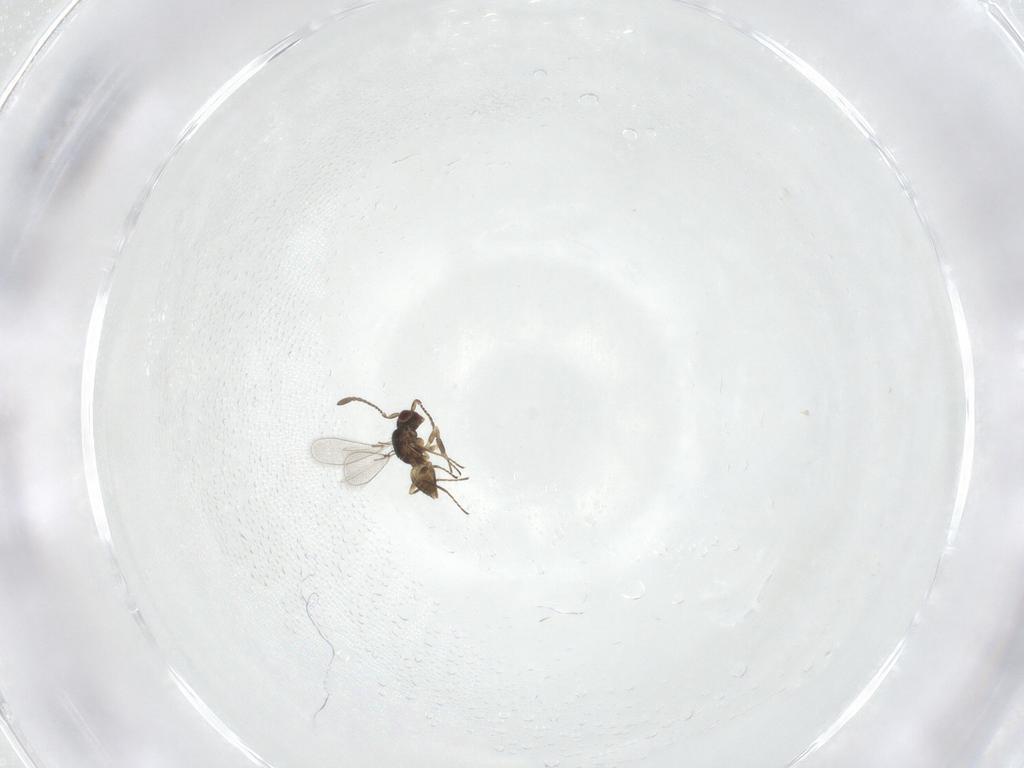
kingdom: Animalia
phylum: Arthropoda
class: Insecta
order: Hymenoptera
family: Mymaridae
